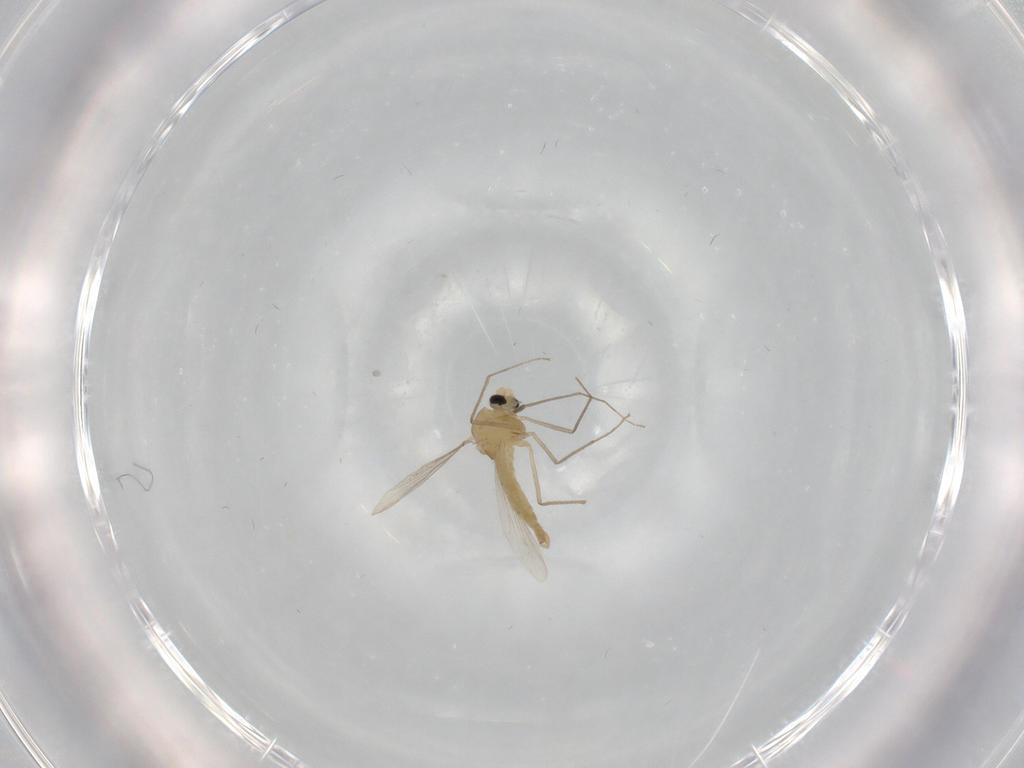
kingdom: Animalia
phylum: Arthropoda
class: Insecta
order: Diptera
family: Chironomidae
